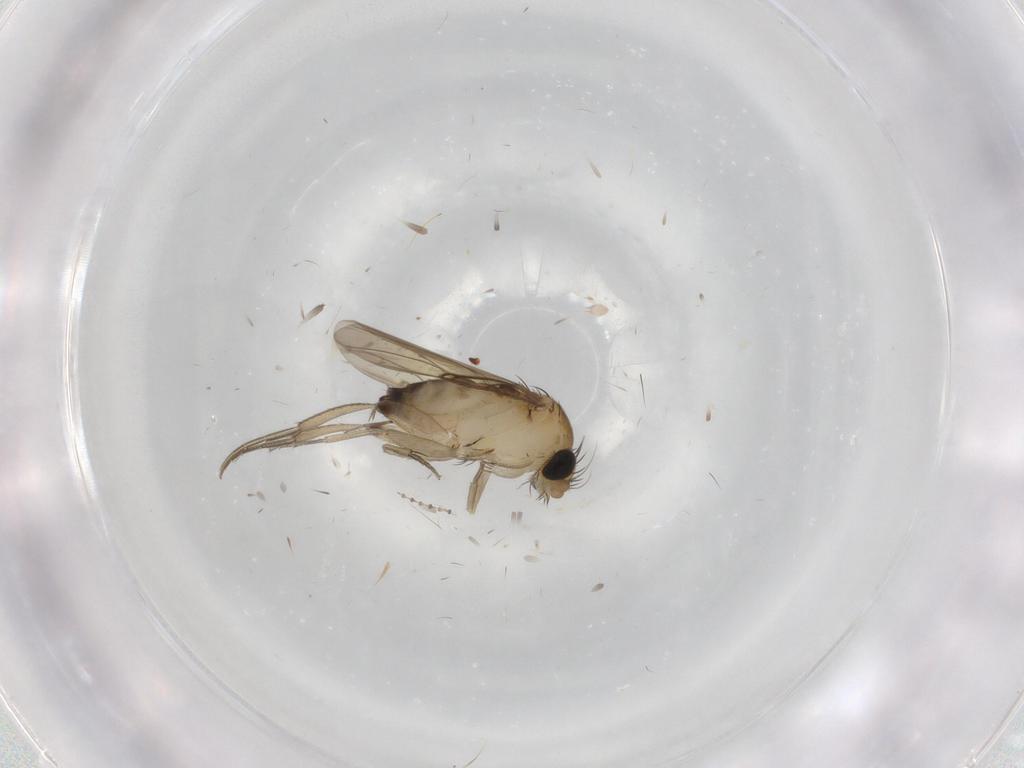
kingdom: Animalia
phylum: Arthropoda
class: Insecta
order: Diptera
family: Phoridae
